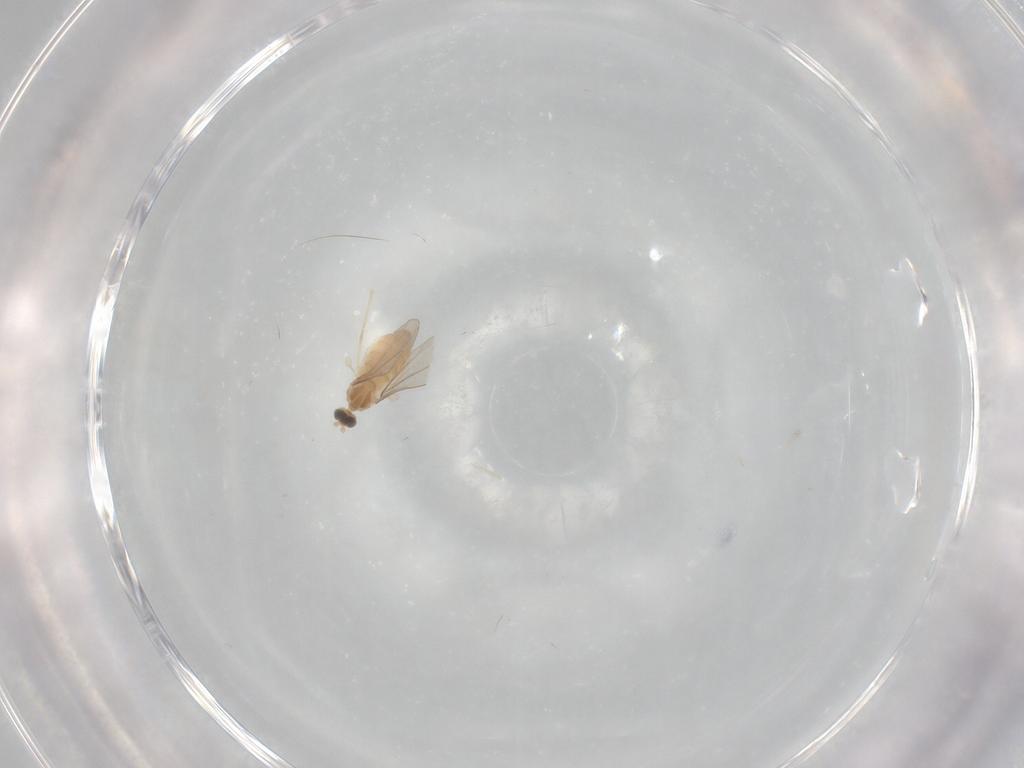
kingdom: Animalia
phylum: Arthropoda
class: Insecta
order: Diptera
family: Cecidomyiidae
